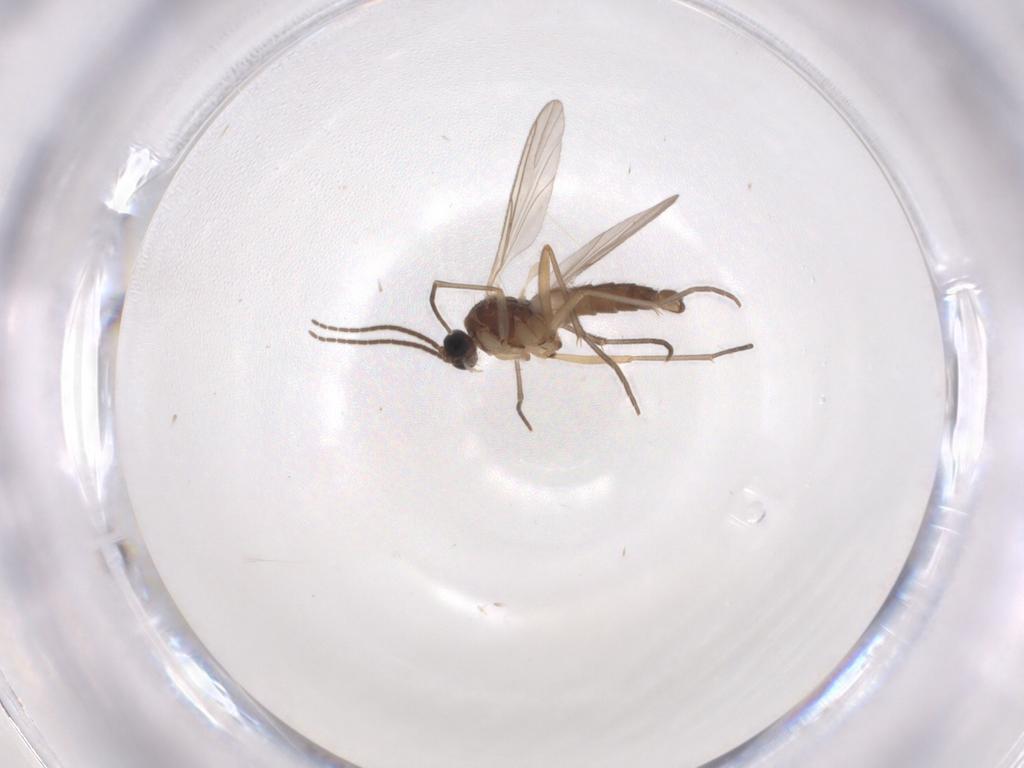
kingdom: Animalia
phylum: Arthropoda
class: Insecta
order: Diptera
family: Sciaridae
